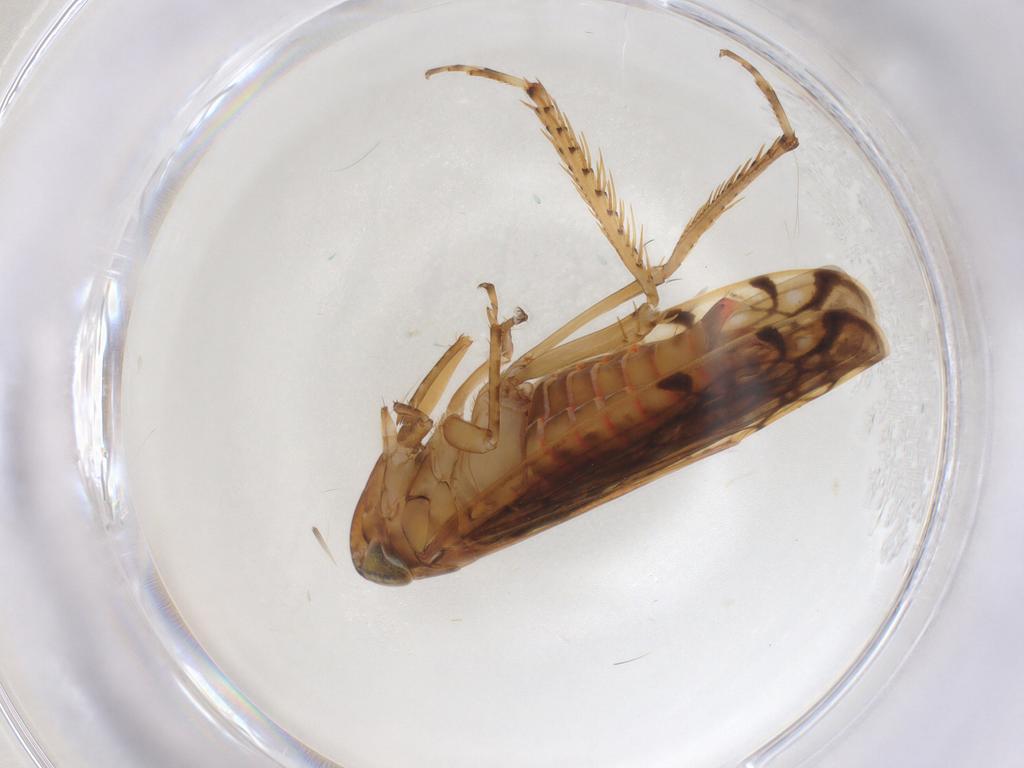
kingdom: Animalia
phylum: Arthropoda
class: Insecta
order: Hemiptera
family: Cicadellidae
